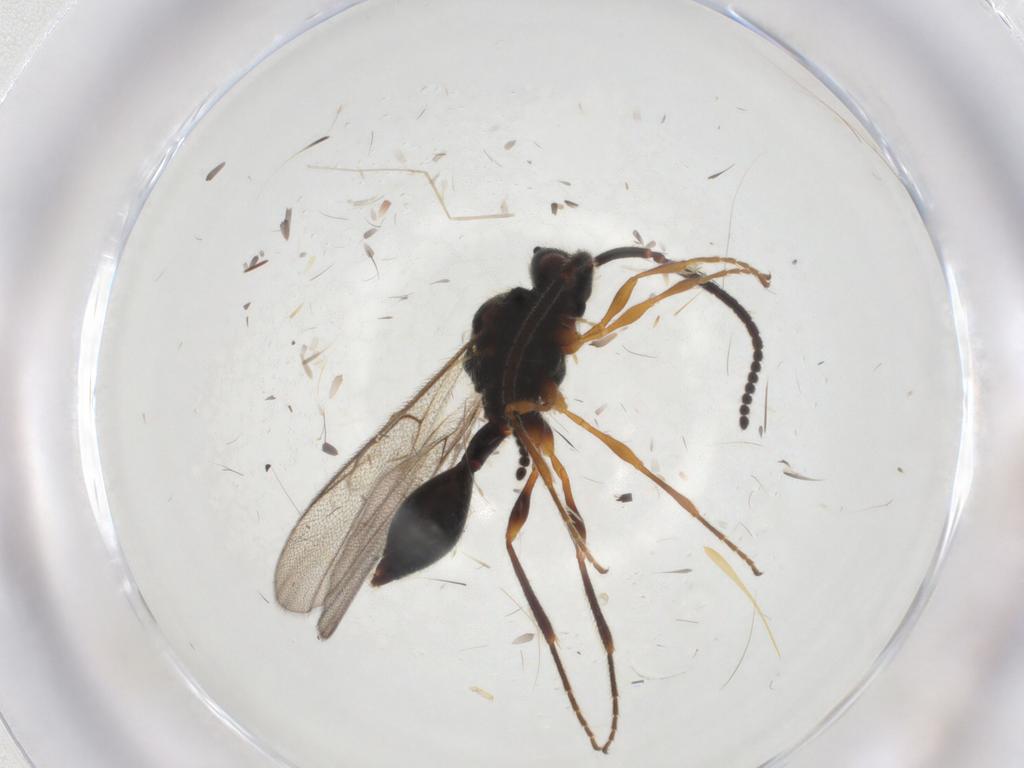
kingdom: Animalia
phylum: Arthropoda
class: Insecta
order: Hymenoptera
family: Diapriidae
